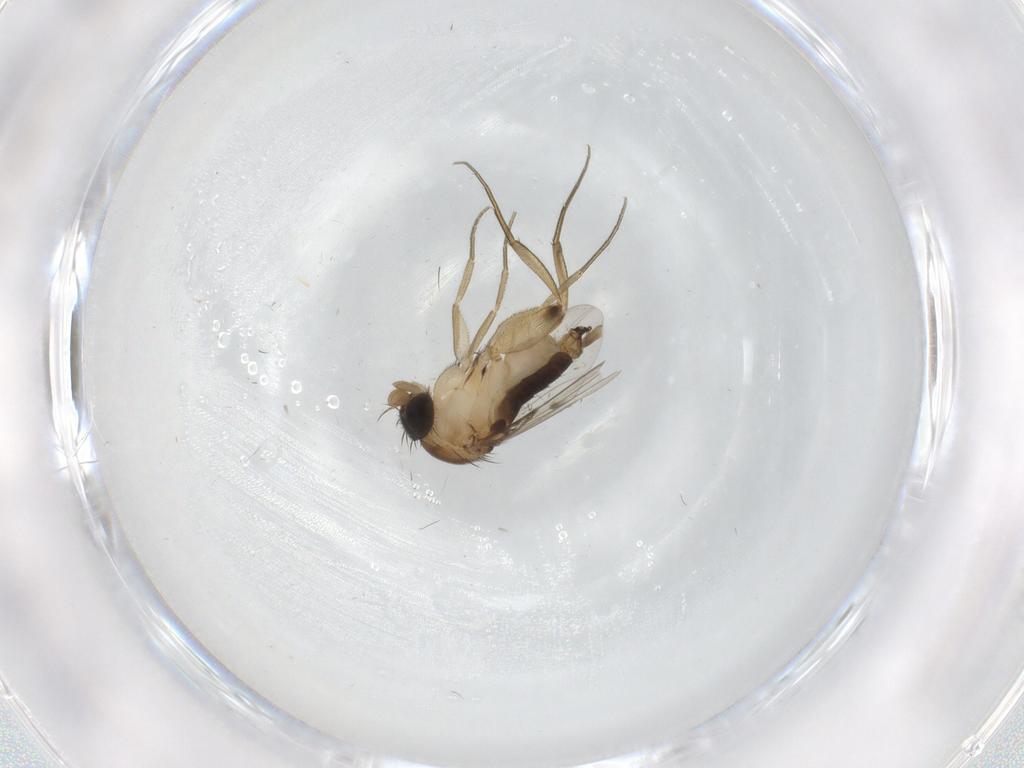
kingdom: Animalia
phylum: Arthropoda
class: Insecta
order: Diptera
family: Phoridae
